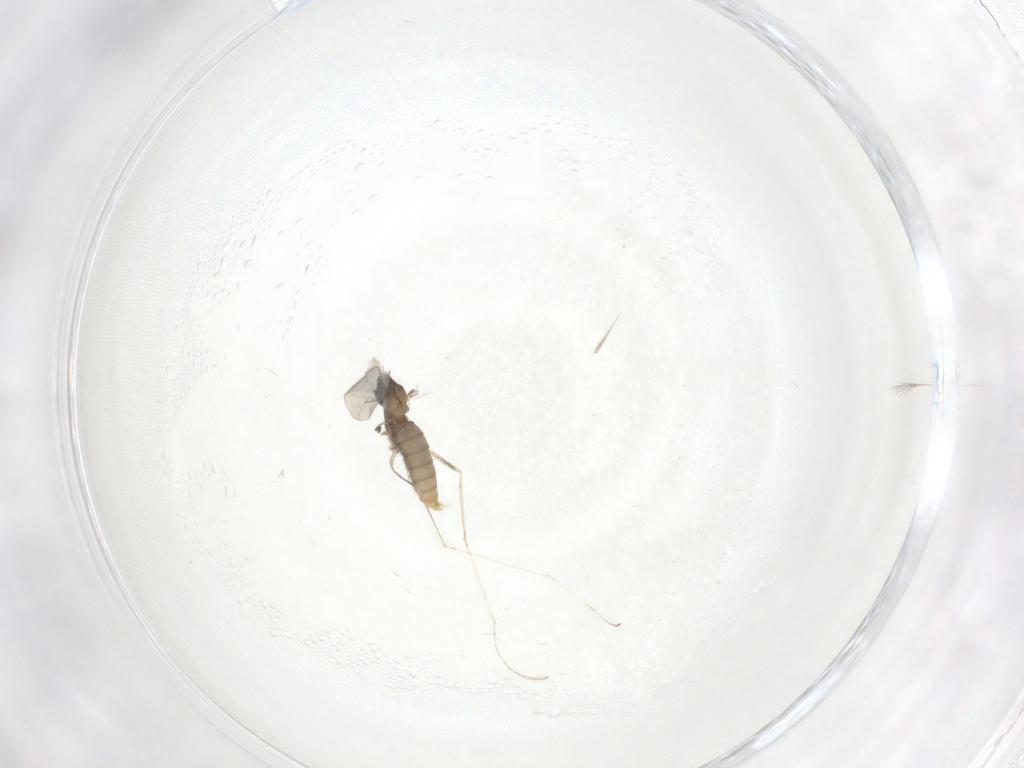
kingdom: Animalia
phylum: Arthropoda
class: Insecta
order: Diptera
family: Cecidomyiidae
